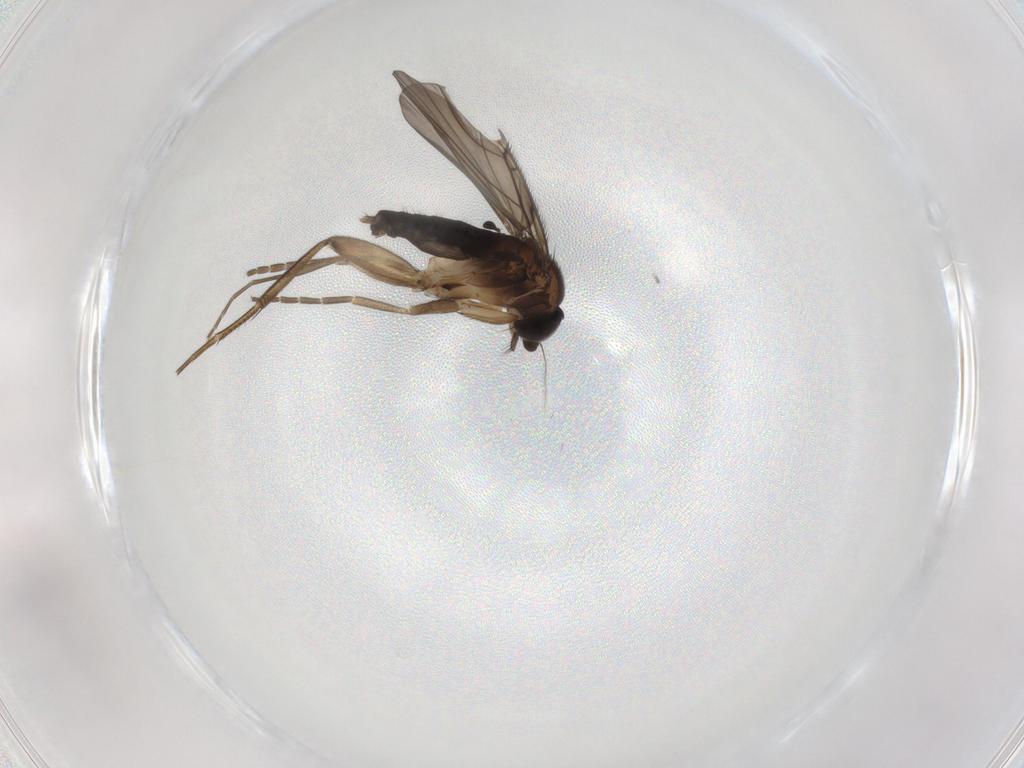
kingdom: Animalia
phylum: Arthropoda
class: Insecta
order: Diptera
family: Phoridae
